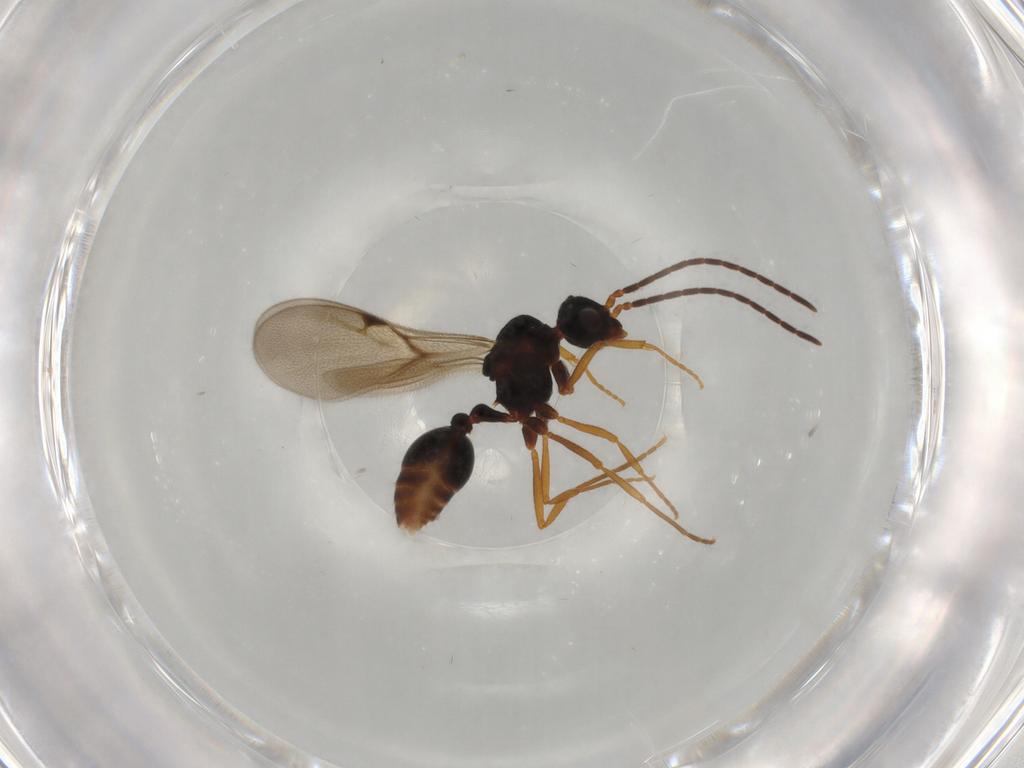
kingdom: Animalia
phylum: Arthropoda
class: Insecta
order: Hymenoptera
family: Formicidae
